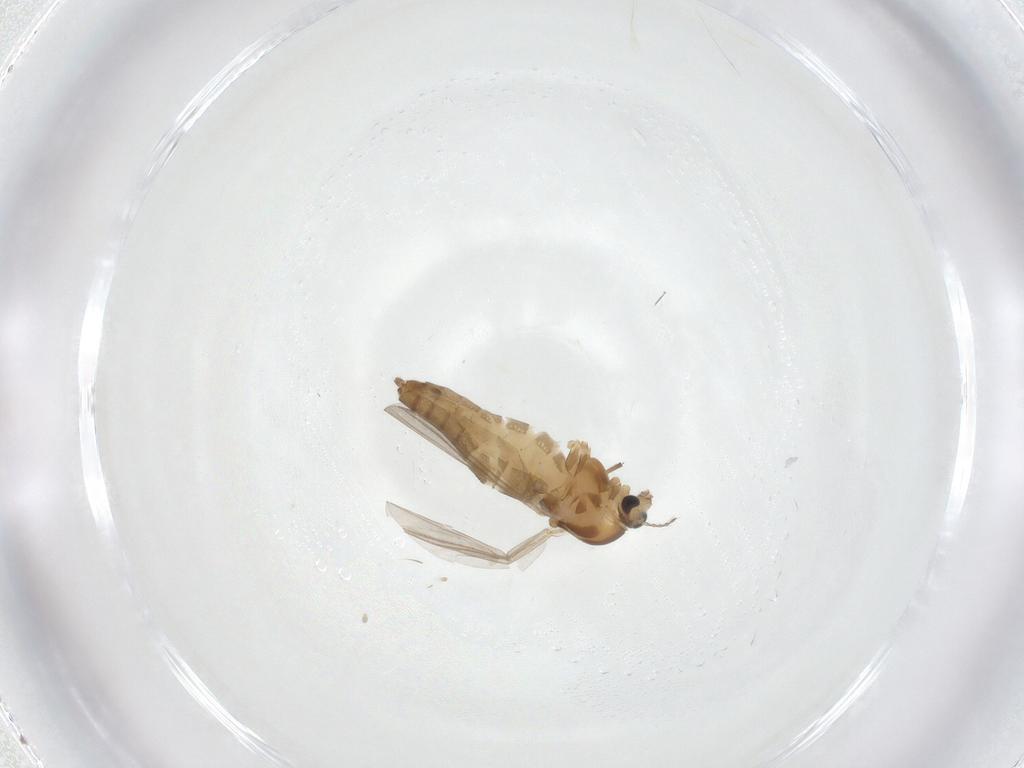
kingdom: Animalia
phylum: Arthropoda
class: Insecta
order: Diptera
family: Chironomidae
